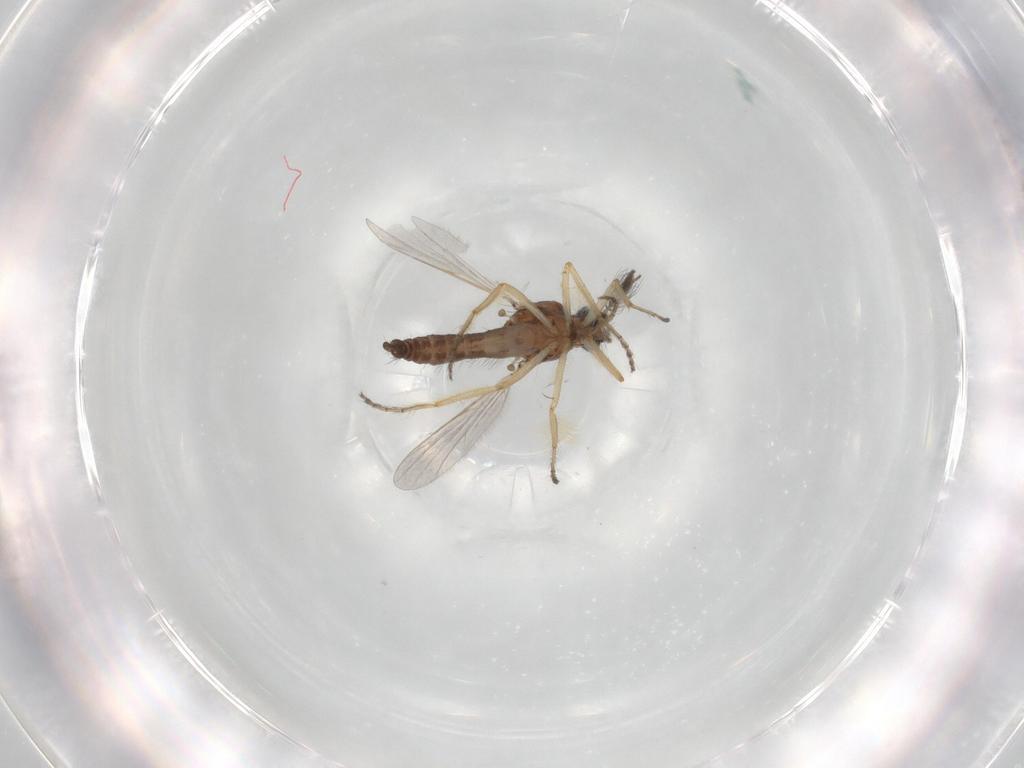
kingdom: Animalia
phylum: Arthropoda
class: Insecta
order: Diptera
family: Ceratopogonidae
